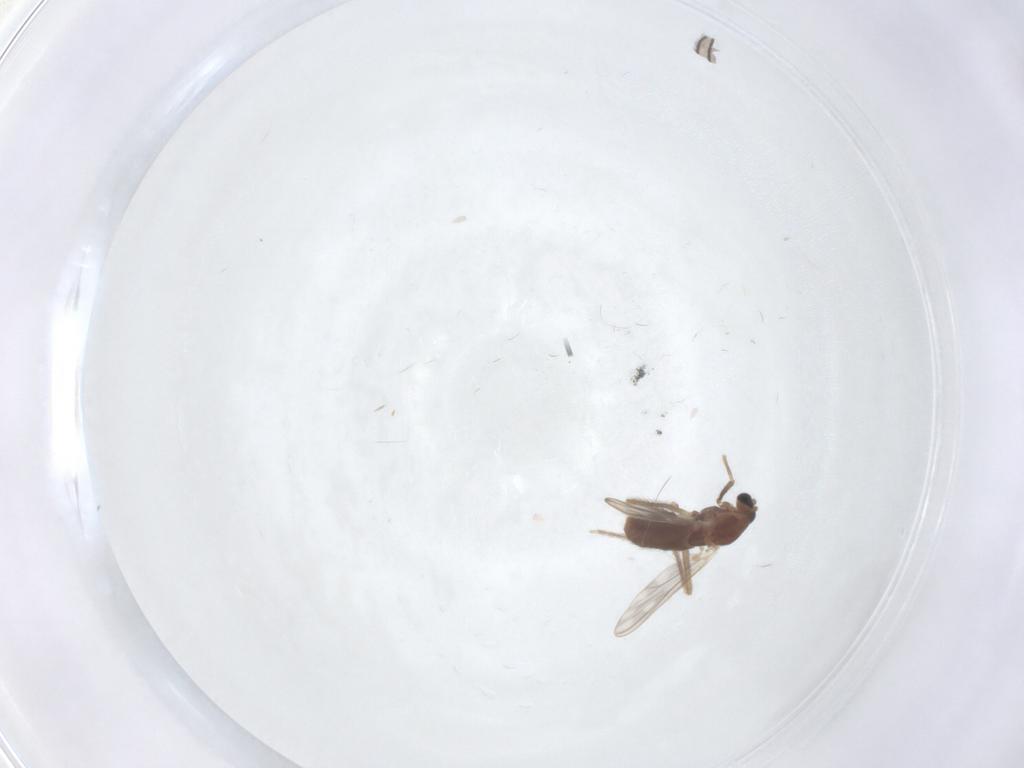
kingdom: Animalia
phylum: Arthropoda
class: Insecta
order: Diptera
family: Chironomidae
